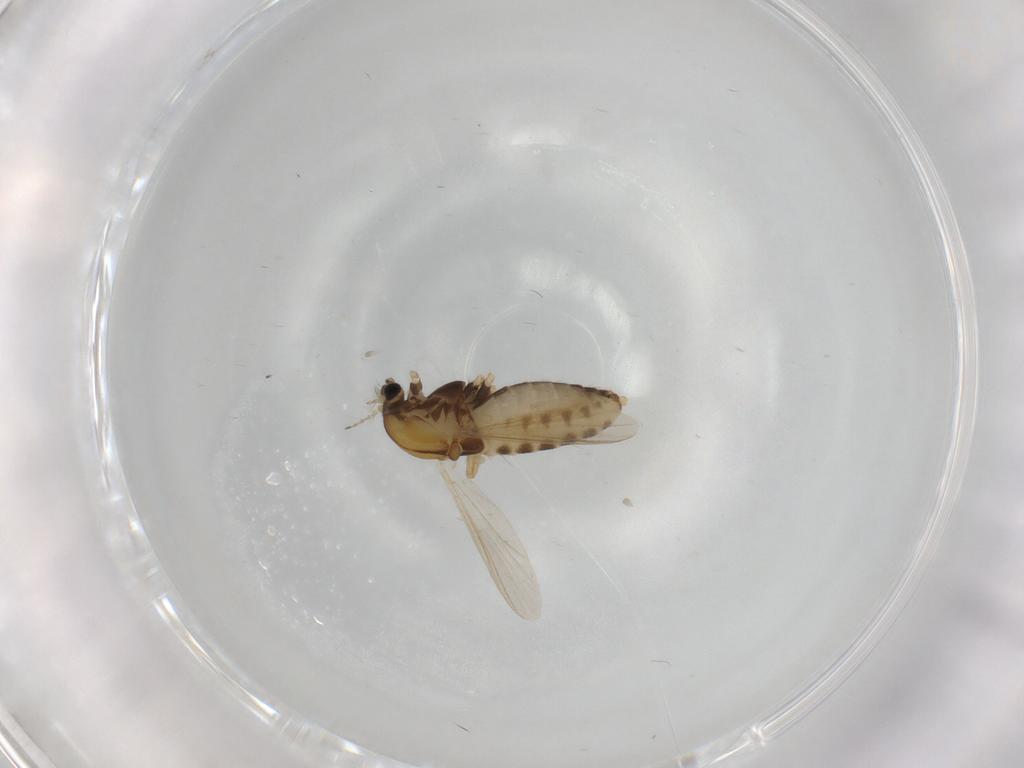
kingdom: Animalia
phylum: Arthropoda
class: Insecta
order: Diptera
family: Chironomidae
